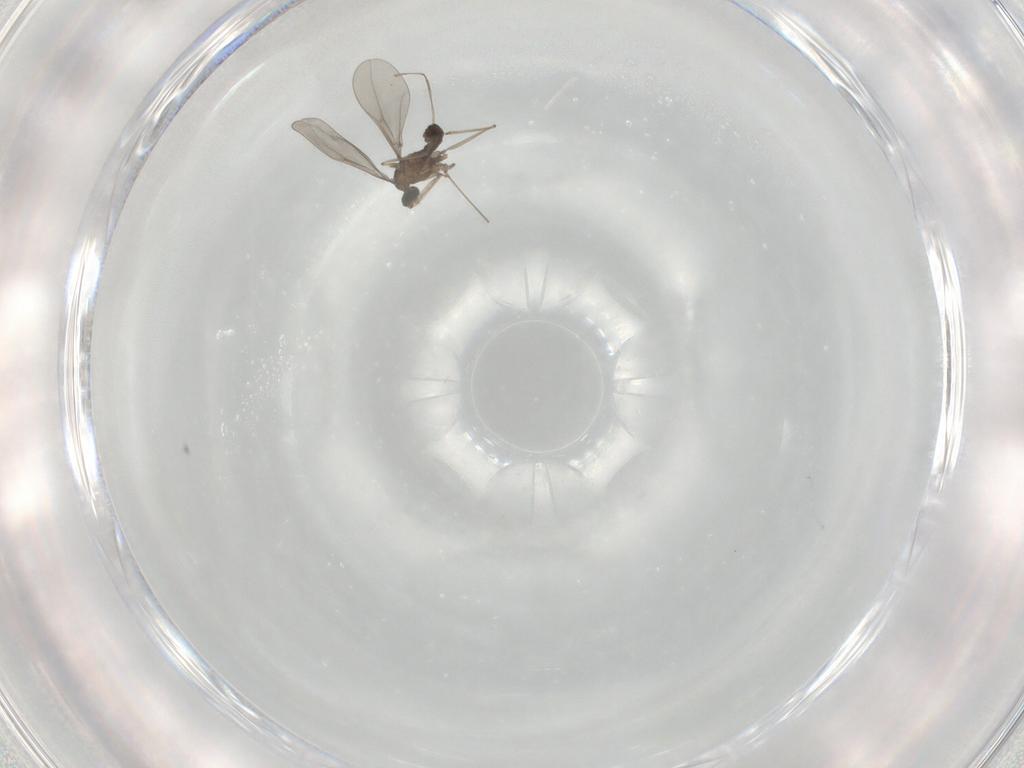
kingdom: Animalia
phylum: Arthropoda
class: Insecta
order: Diptera
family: Cecidomyiidae
